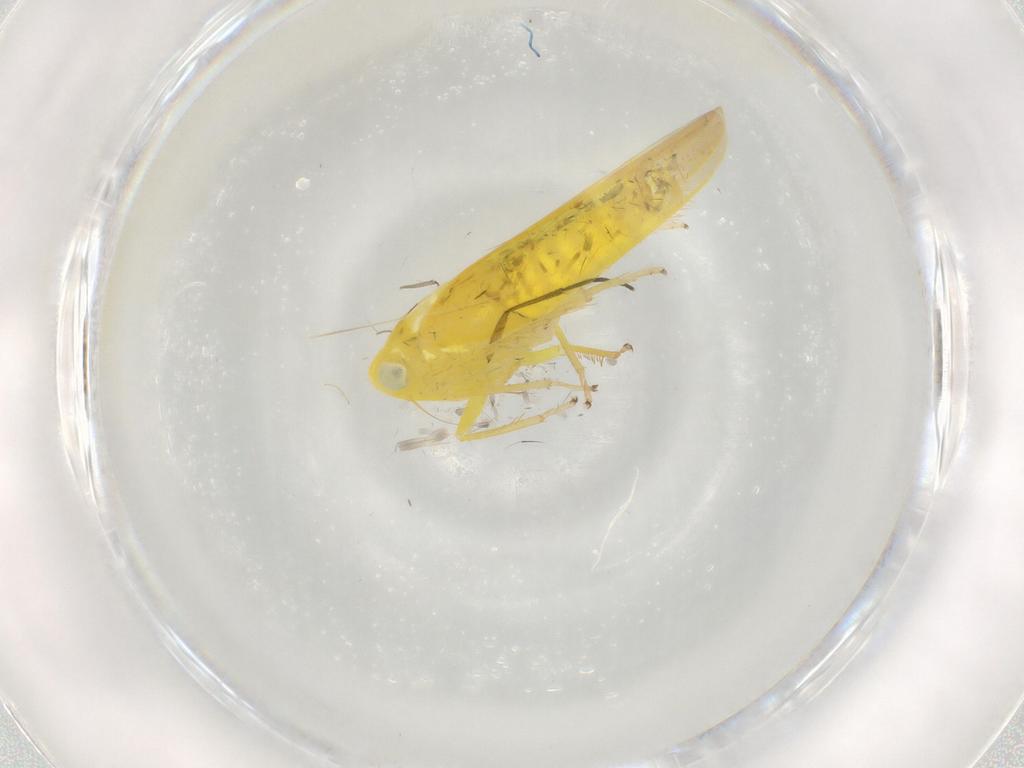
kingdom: Animalia
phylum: Arthropoda
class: Insecta
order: Hemiptera
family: Cicadellidae
